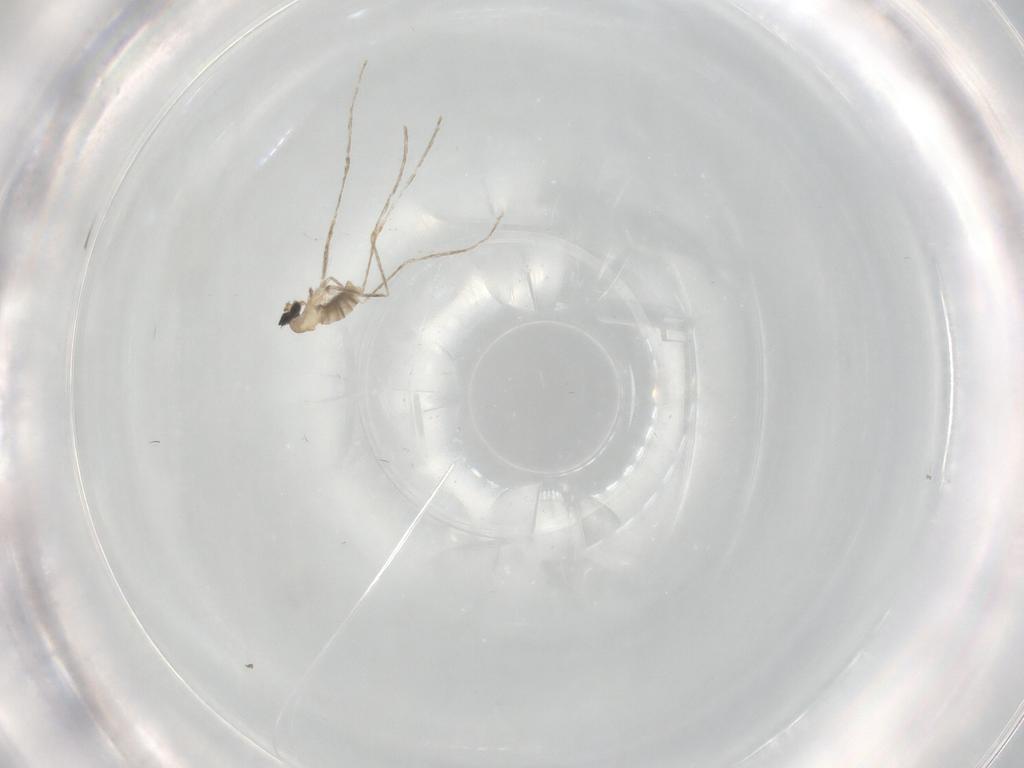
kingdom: Animalia
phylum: Arthropoda
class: Insecta
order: Diptera
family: Cecidomyiidae
